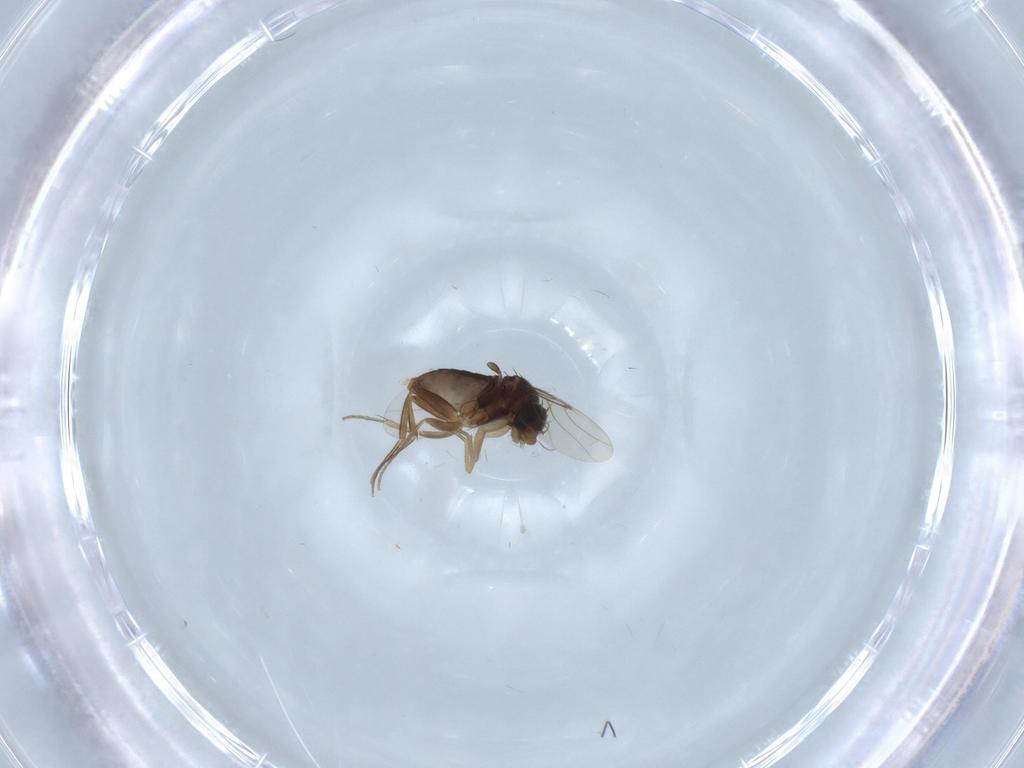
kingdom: Animalia
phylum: Arthropoda
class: Insecta
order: Diptera
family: Phoridae
